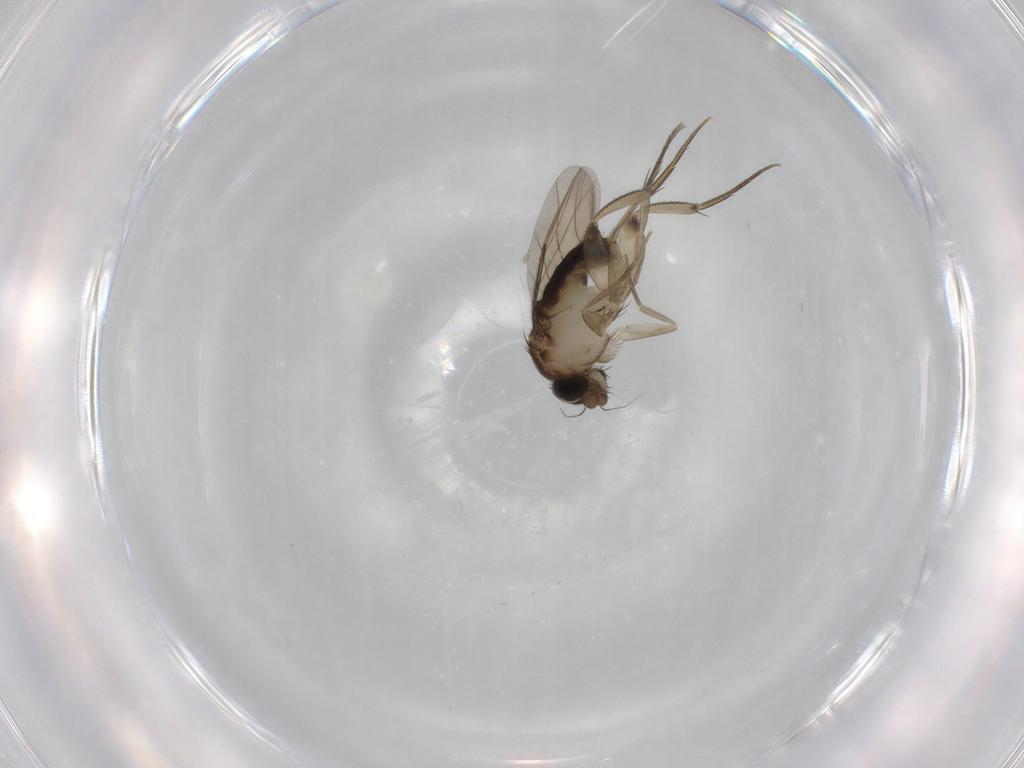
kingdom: Animalia
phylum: Arthropoda
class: Insecta
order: Diptera
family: Phoridae
